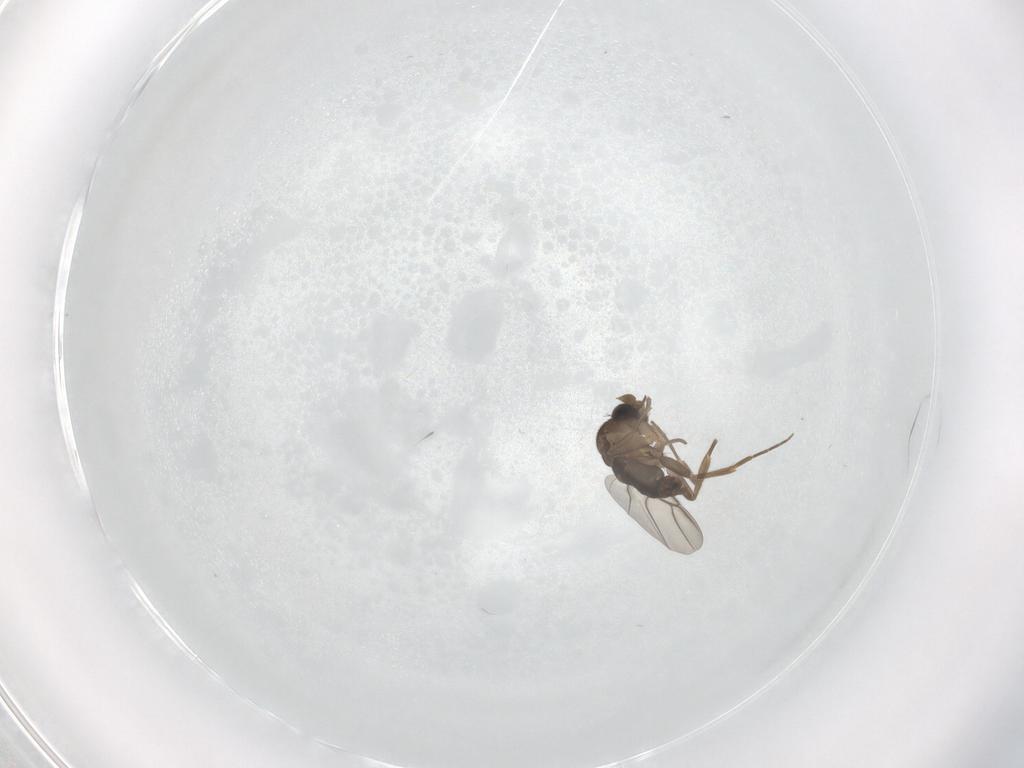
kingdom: Animalia
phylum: Arthropoda
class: Insecta
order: Diptera
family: Phoridae
